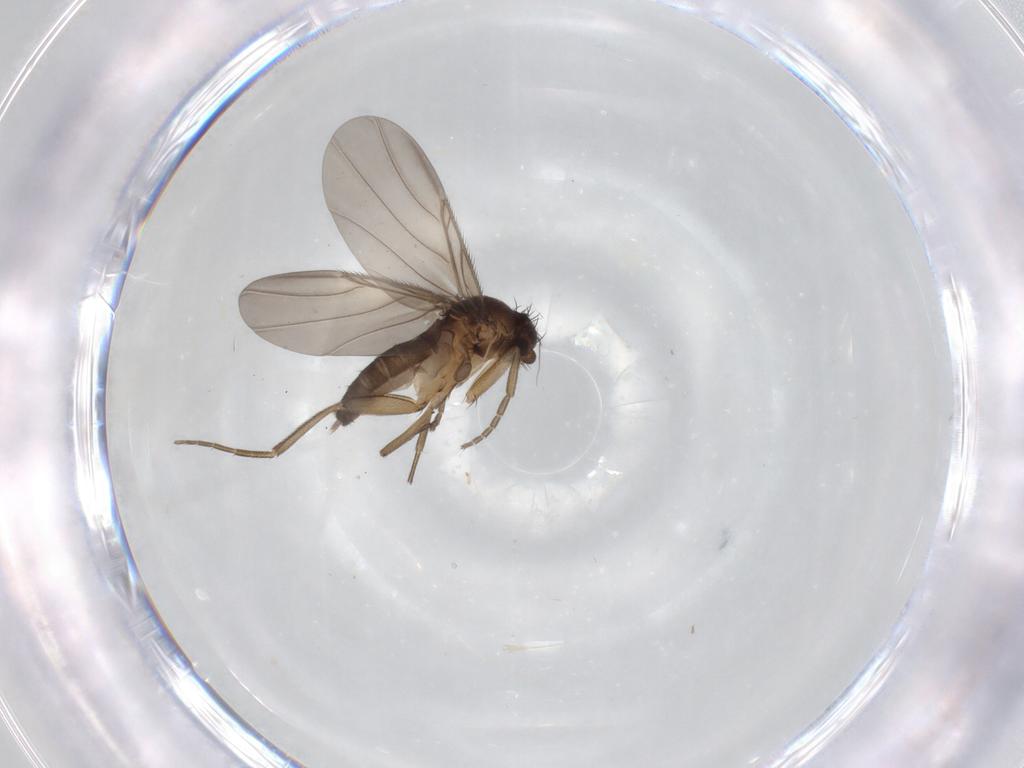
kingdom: Animalia
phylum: Arthropoda
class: Insecta
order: Diptera
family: Phoridae
